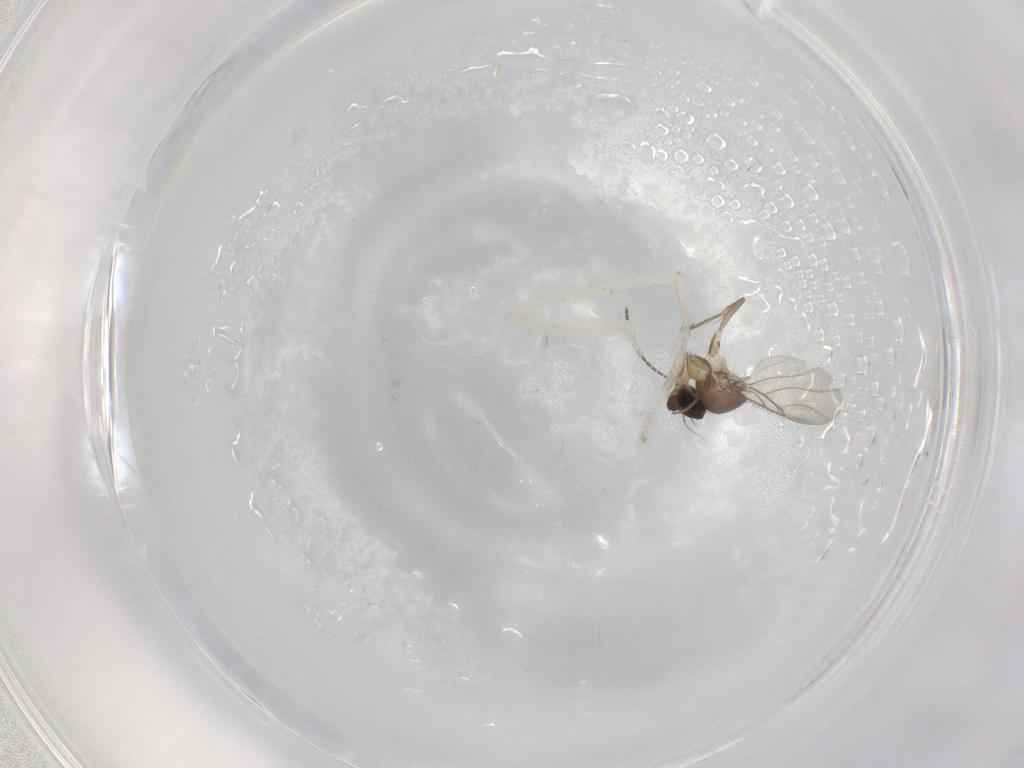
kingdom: Animalia
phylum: Arthropoda
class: Insecta
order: Diptera
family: Phoridae
